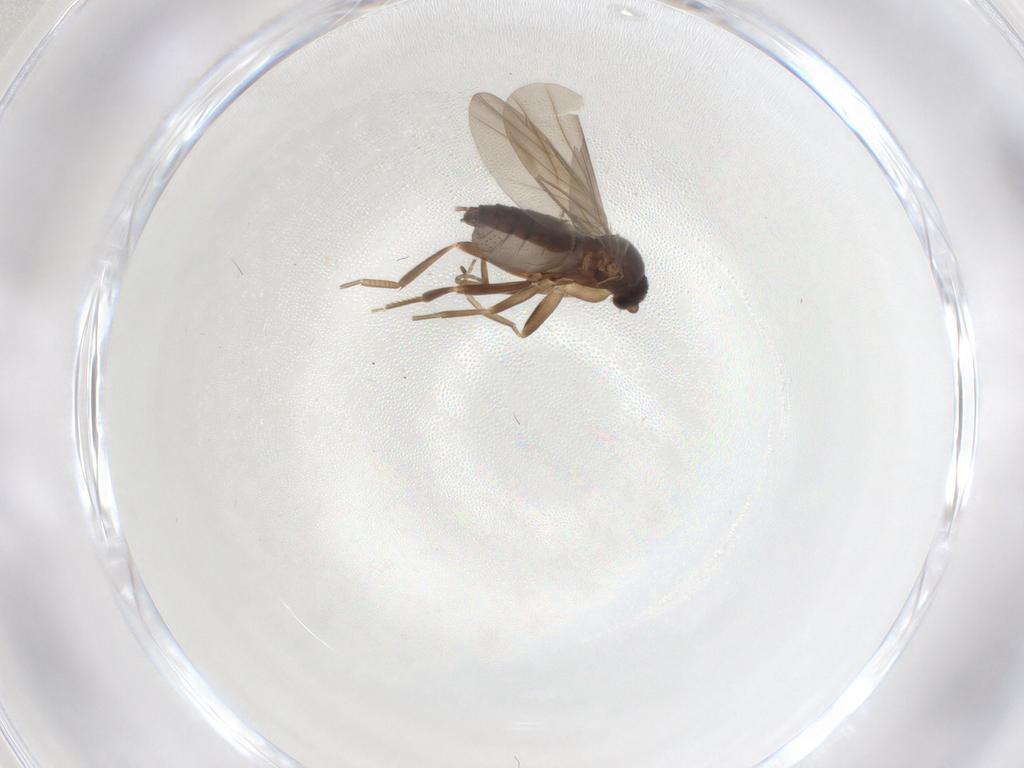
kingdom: Animalia
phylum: Arthropoda
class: Insecta
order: Diptera
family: Phoridae
